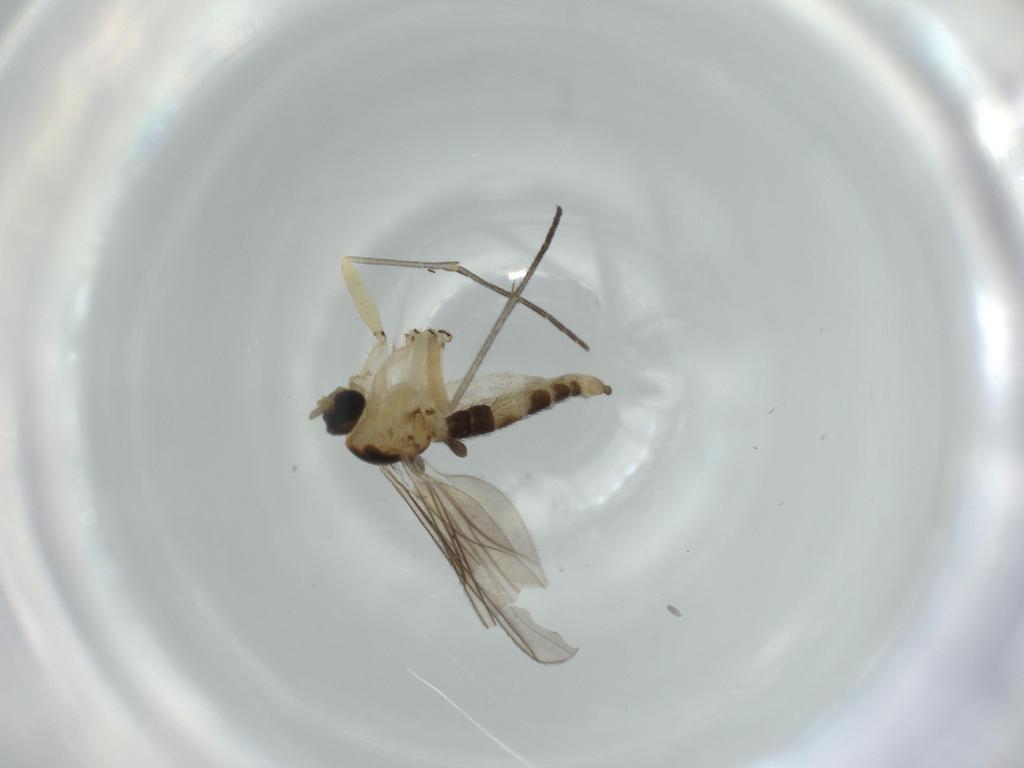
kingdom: Animalia
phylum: Arthropoda
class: Insecta
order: Diptera
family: Sciaridae
